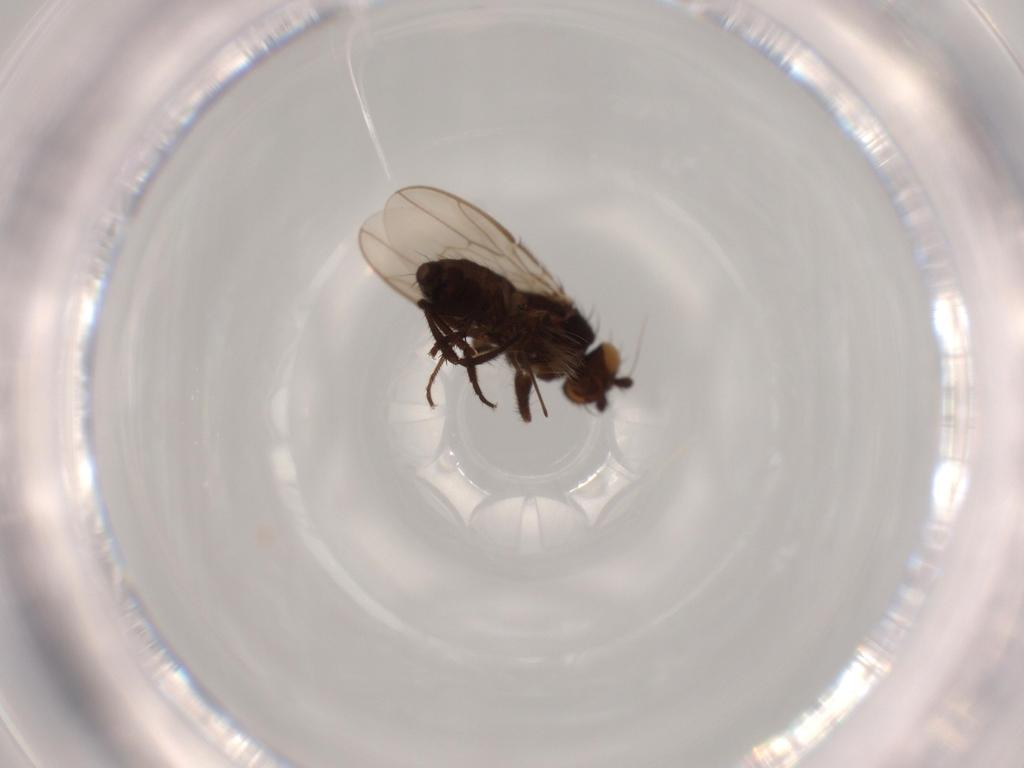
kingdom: Animalia
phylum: Arthropoda
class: Insecta
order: Diptera
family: Sphaeroceridae
